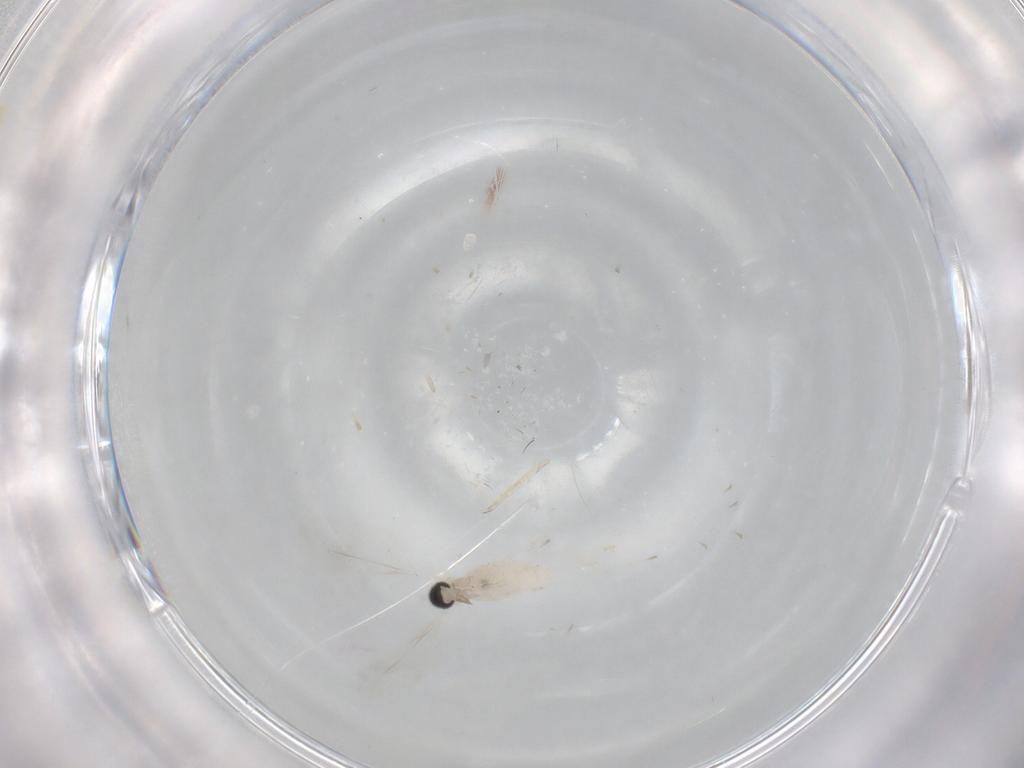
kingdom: Animalia
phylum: Arthropoda
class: Insecta
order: Diptera
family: Cecidomyiidae
